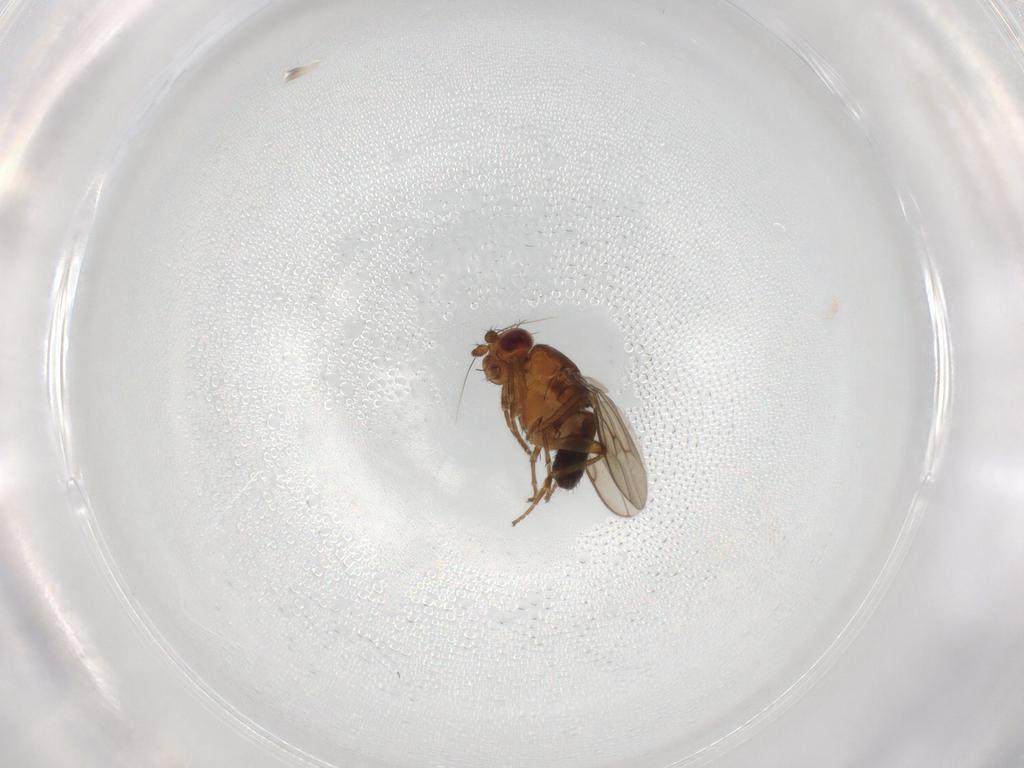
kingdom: Animalia
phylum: Arthropoda
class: Insecta
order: Diptera
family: Sphaeroceridae
